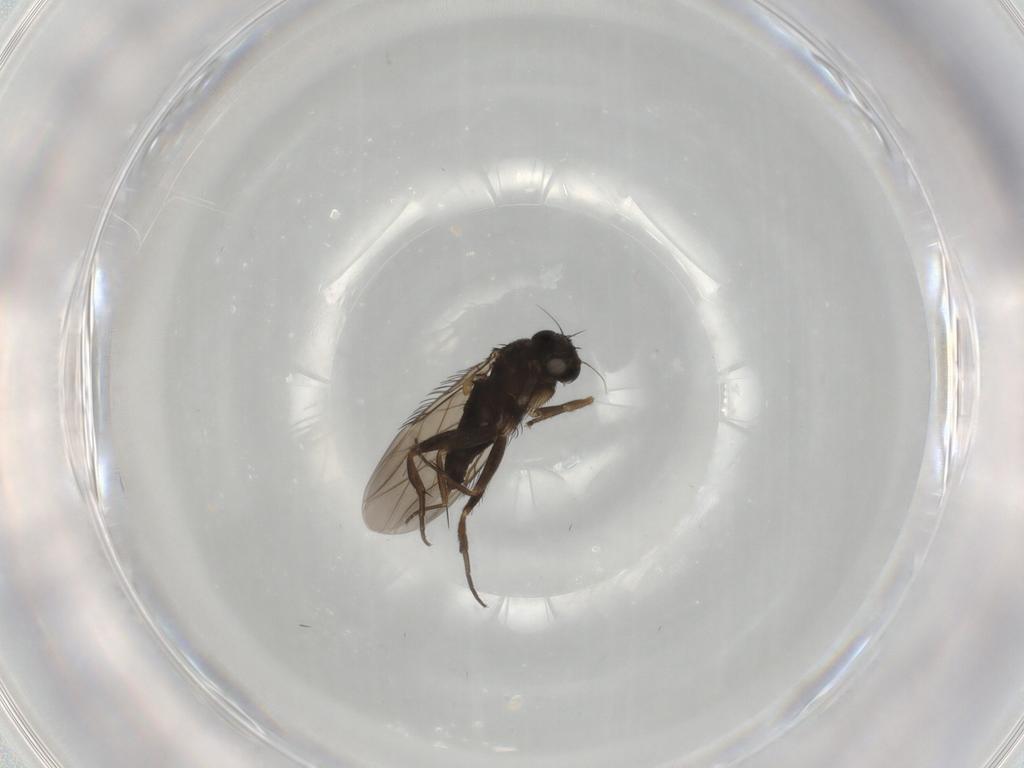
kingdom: Animalia
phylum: Arthropoda
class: Insecta
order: Diptera
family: Phoridae
